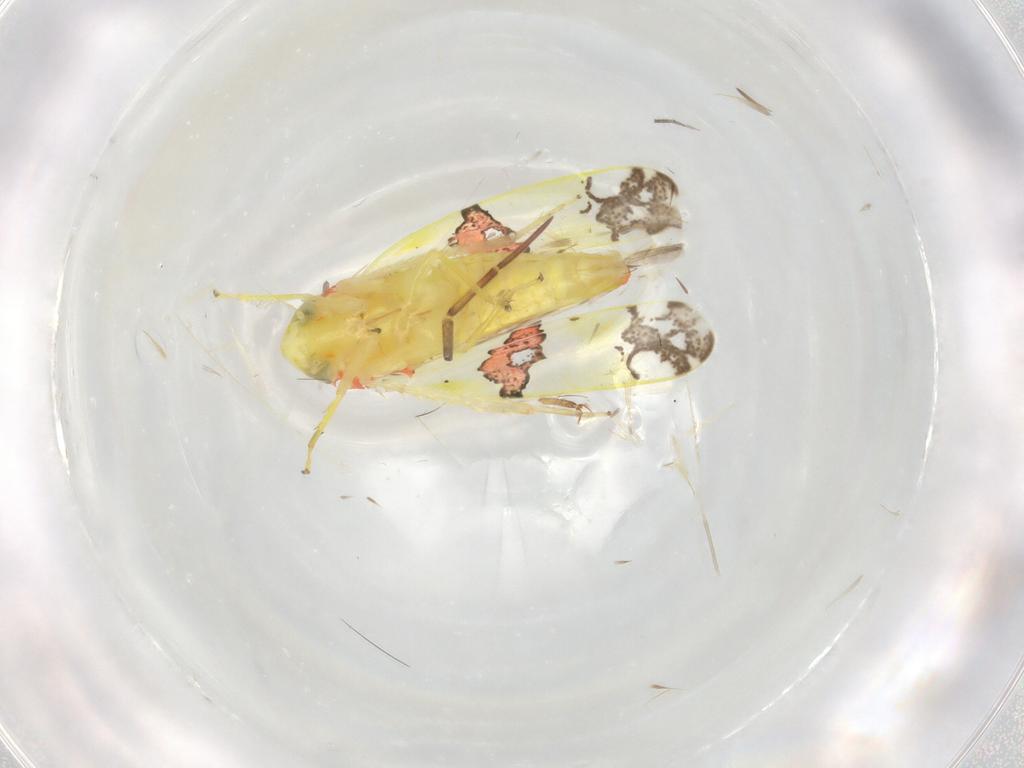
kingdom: Animalia
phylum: Arthropoda
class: Insecta
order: Hemiptera
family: Cicadellidae
